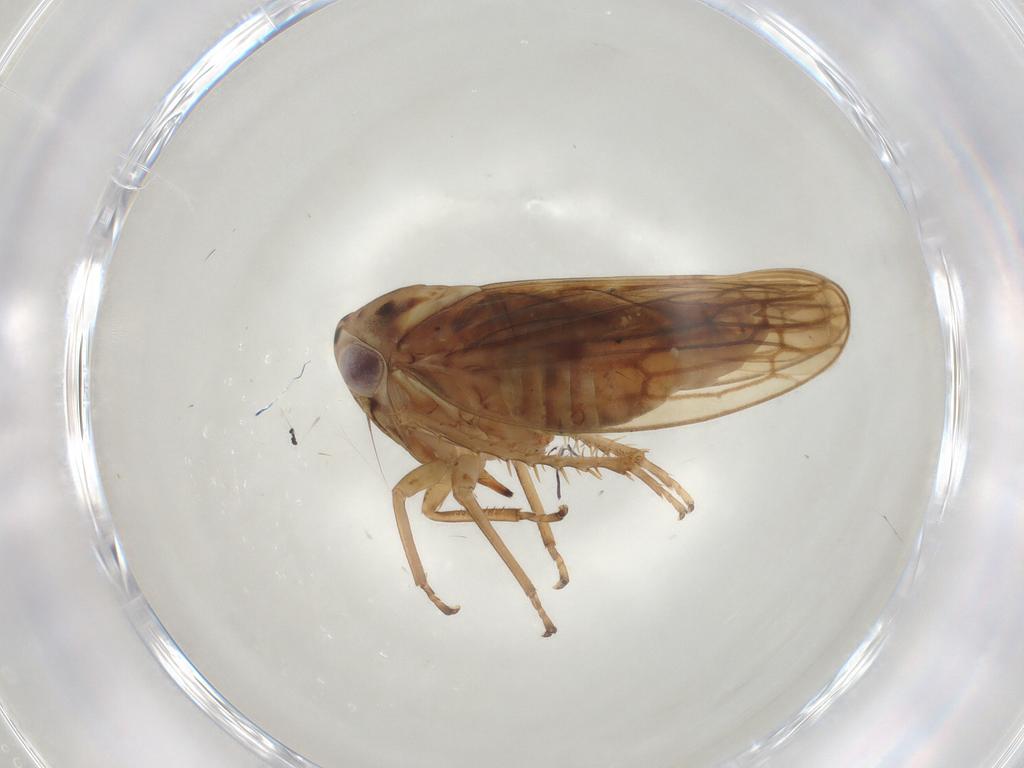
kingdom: Animalia
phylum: Arthropoda
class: Insecta
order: Hemiptera
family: Cicadellidae
